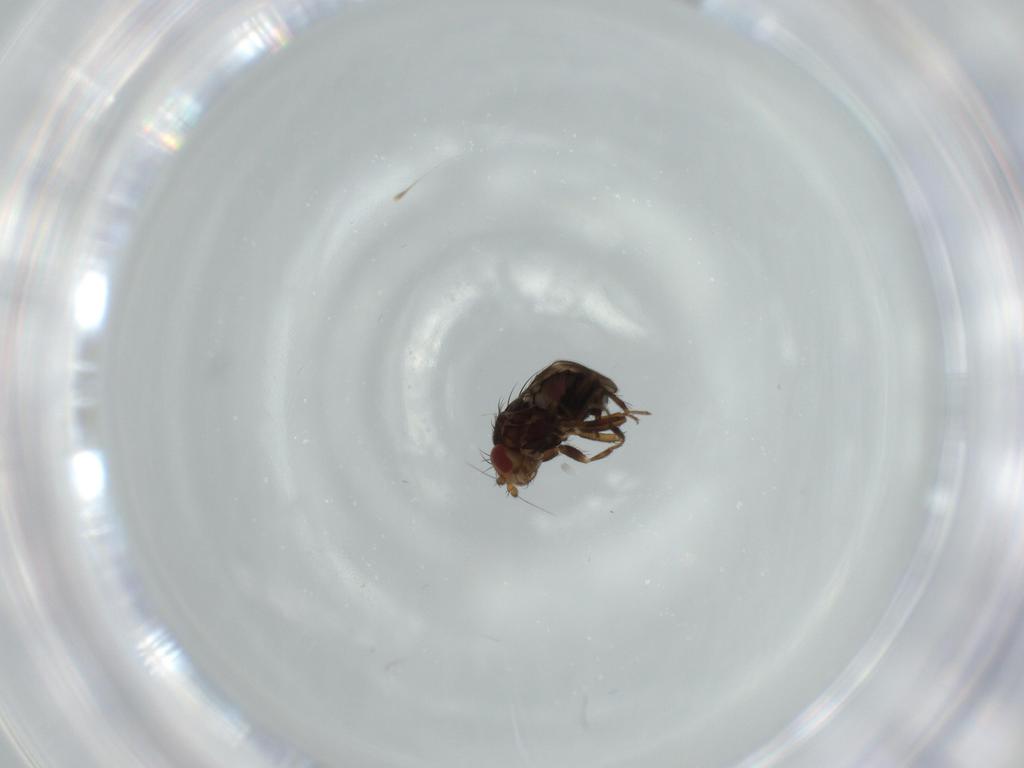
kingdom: Animalia
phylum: Arthropoda
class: Insecta
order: Diptera
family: Sphaeroceridae
